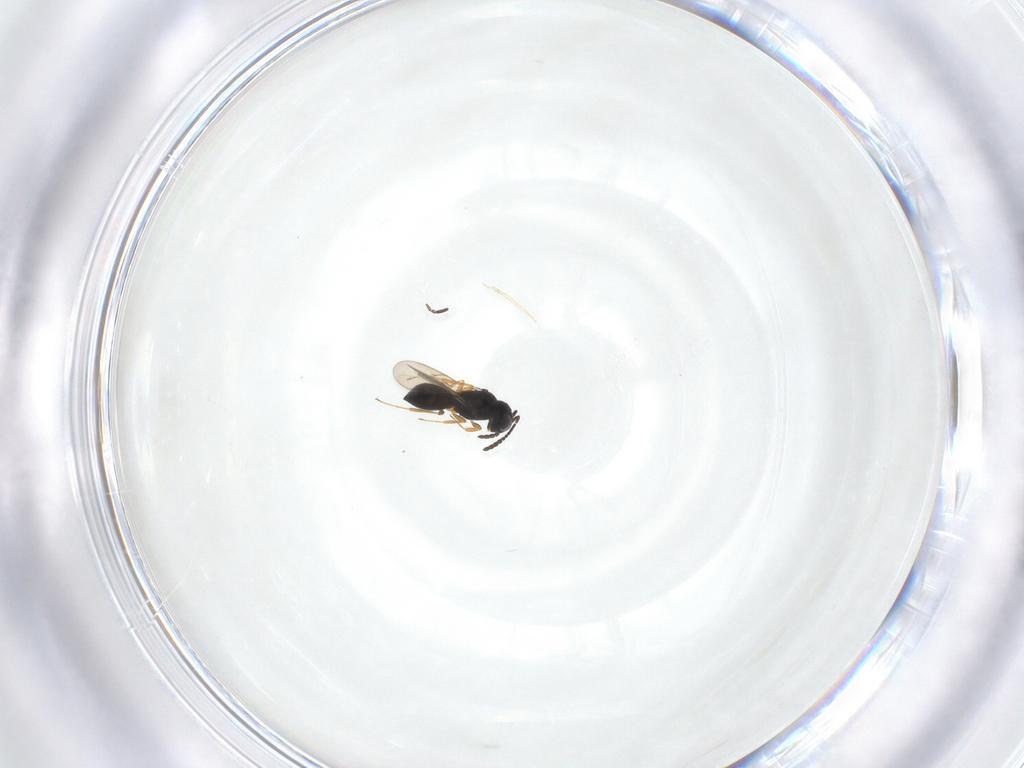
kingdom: Animalia
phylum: Arthropoda
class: Insecta
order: Hymenoptera
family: Scelionidae
